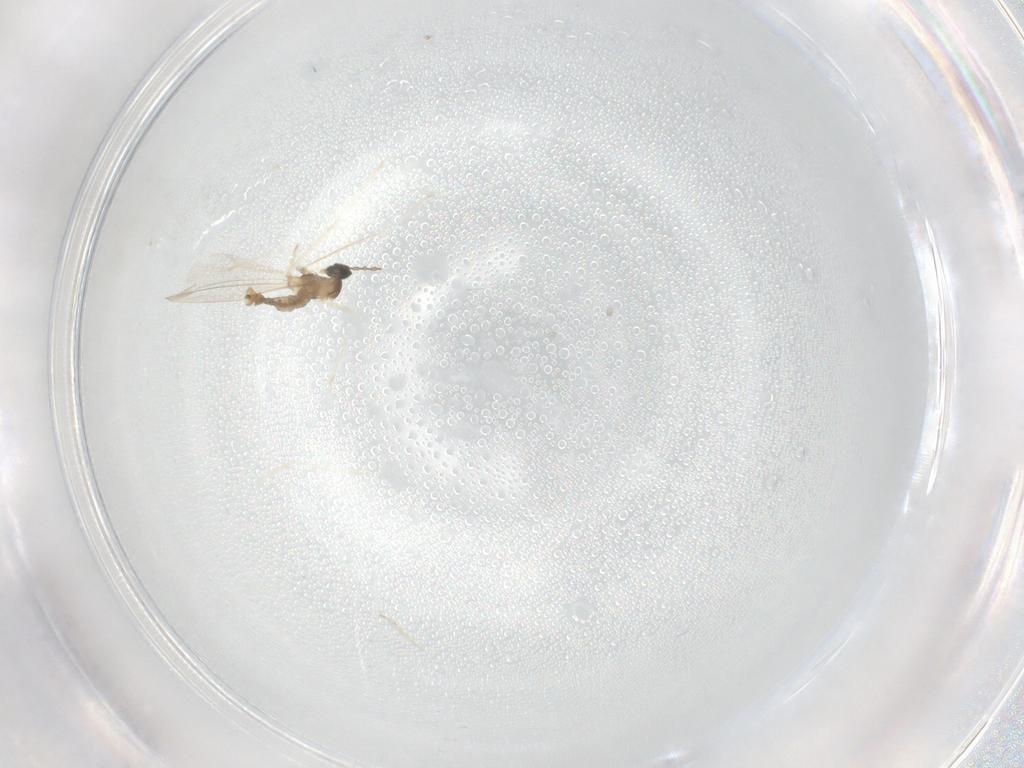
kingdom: Animalia
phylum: Arthropoda
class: Insecta
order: Diptera
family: Cecidomyiidae
